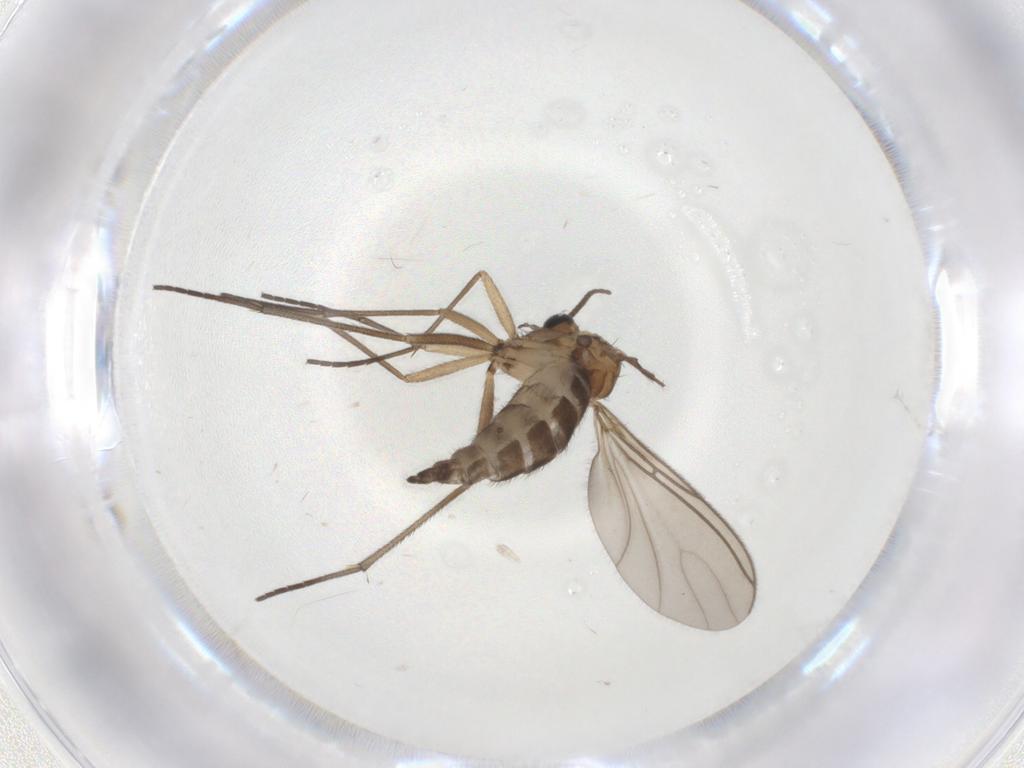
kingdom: Animalia
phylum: Arthropoda
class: Insecta
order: Diptera
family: Sciaridae
